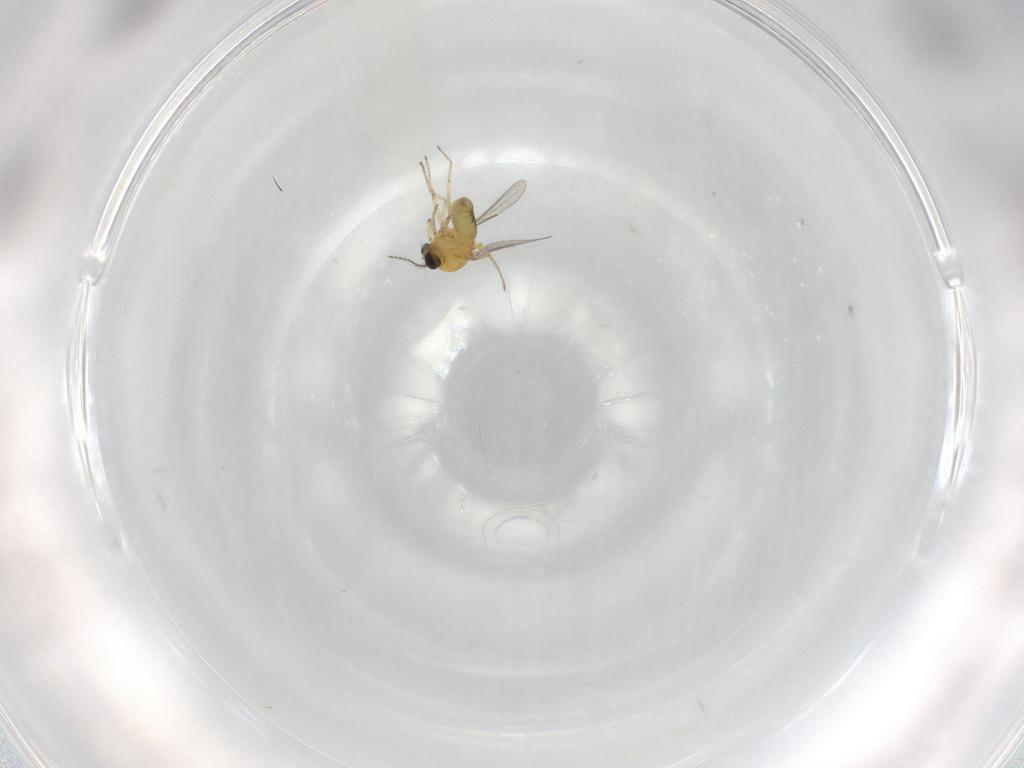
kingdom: Animalia
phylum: Arthropoda
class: Insecta
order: Diptera
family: Ceratopogonidae
